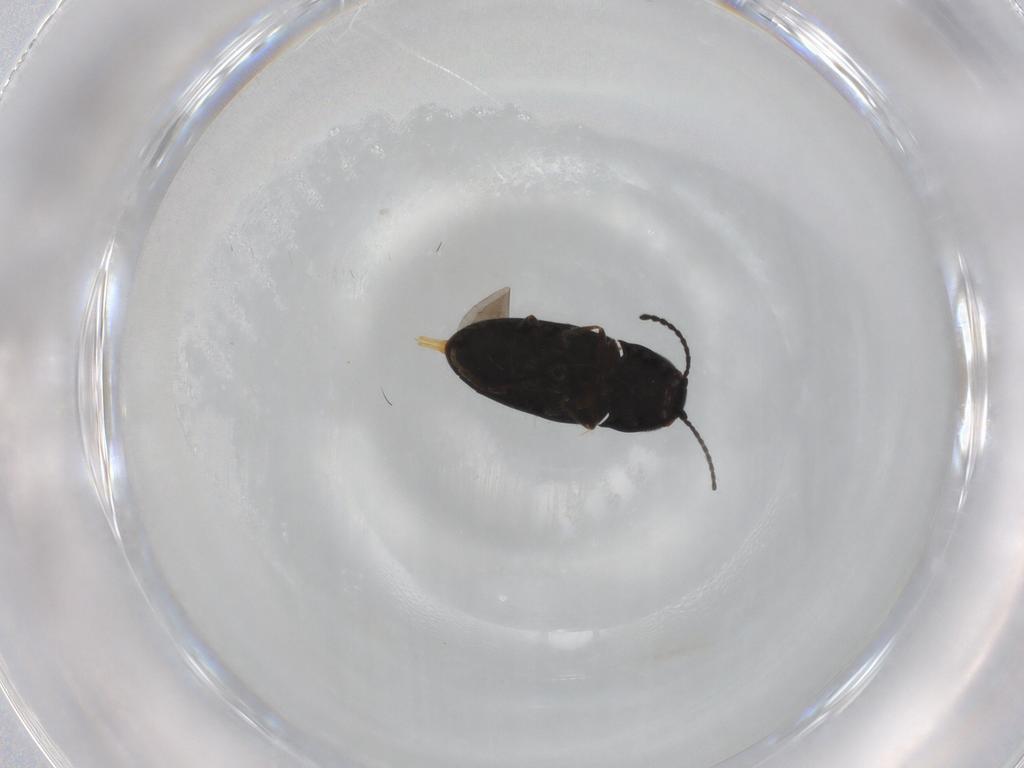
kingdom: Animalia
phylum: Arthropoda
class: Insecta
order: Coleoptera
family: Elateridae
